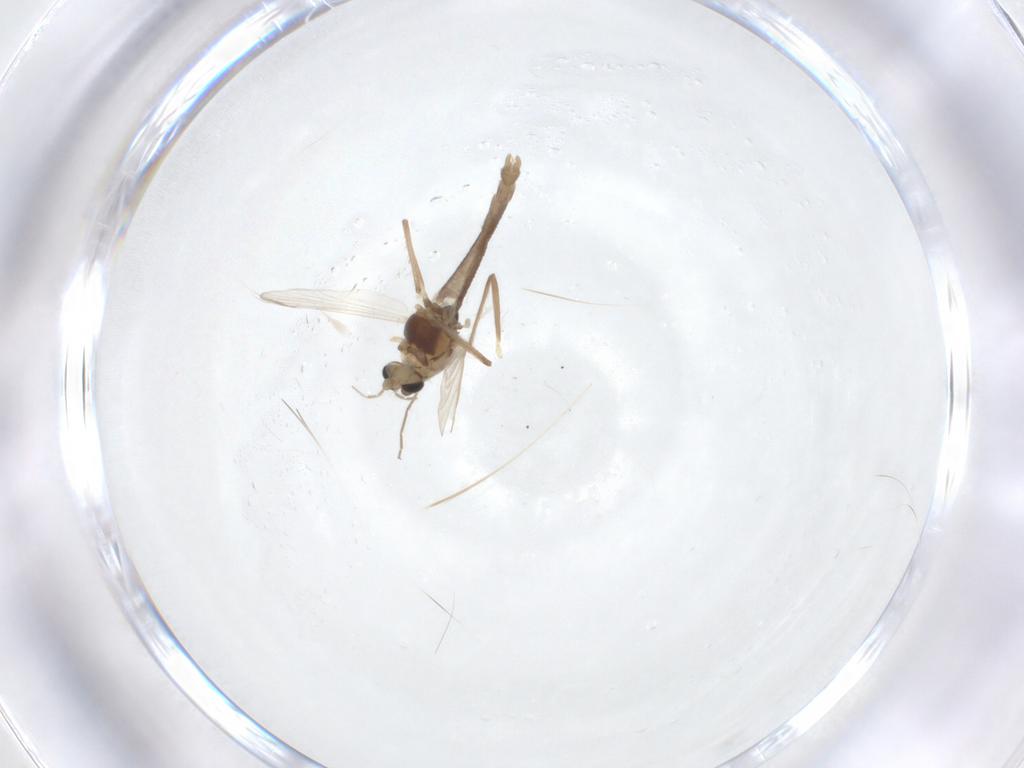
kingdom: Animalia
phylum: Arthropoda
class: Insecta
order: Diptera
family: Chironomidae
